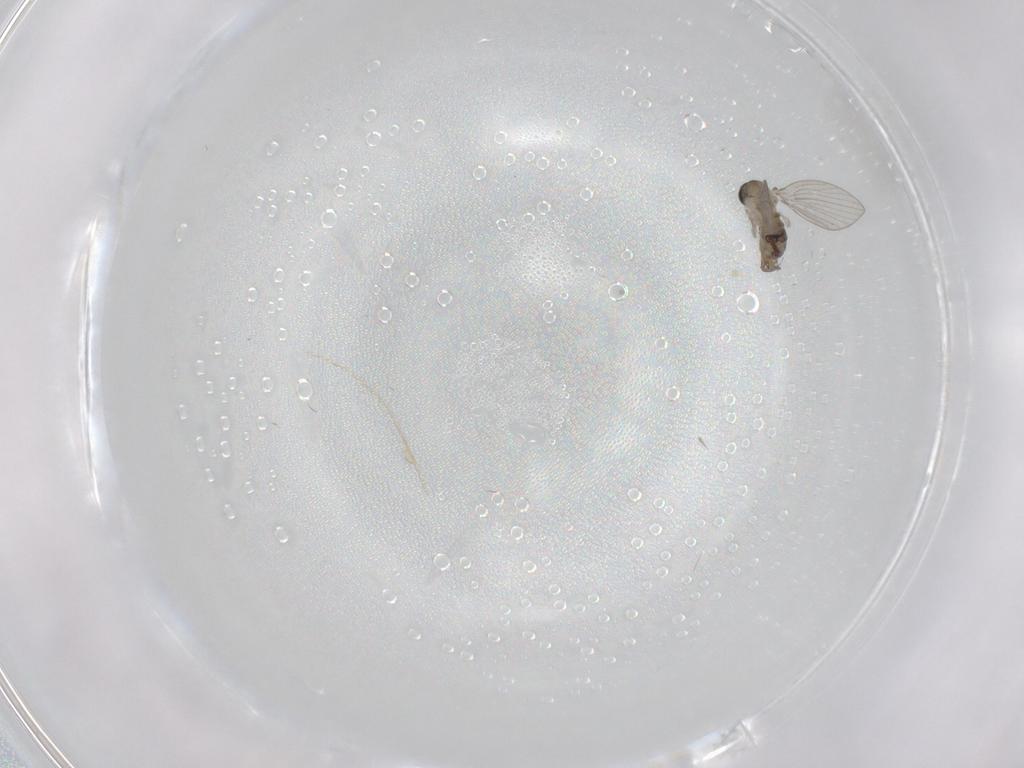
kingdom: Animalia
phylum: Arthropoda
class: Insecta
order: Diptera
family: Psychodidae
